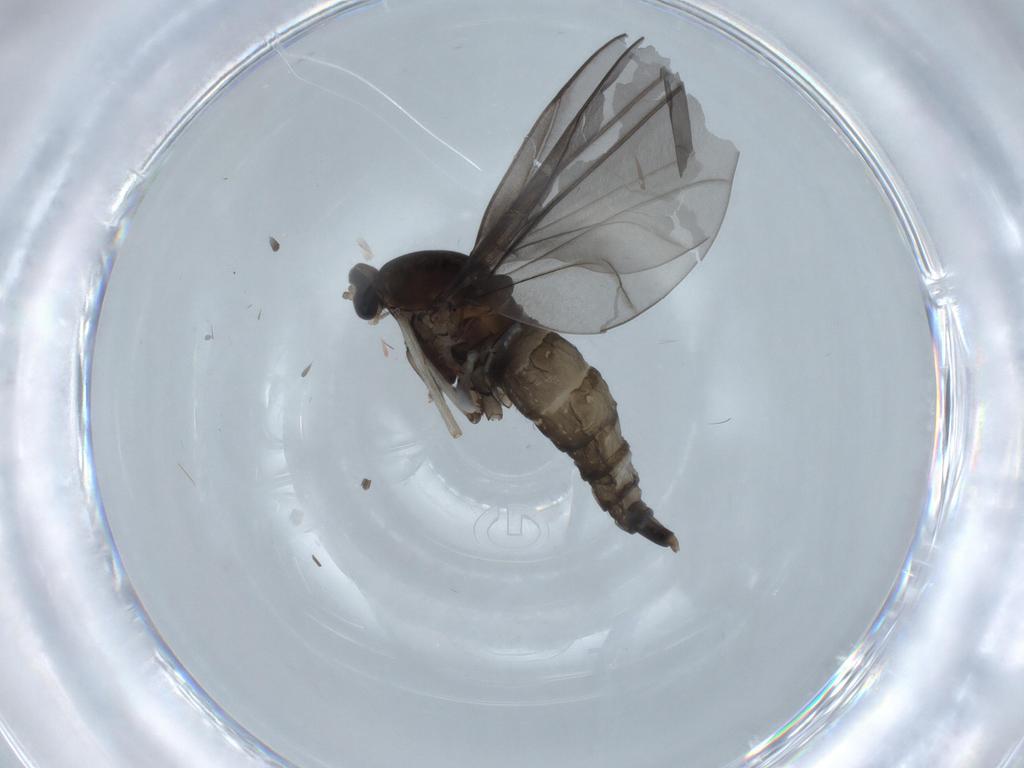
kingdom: Animalia
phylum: Arthropoda
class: Insecta
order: Diptera
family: Cecidomyiidae
